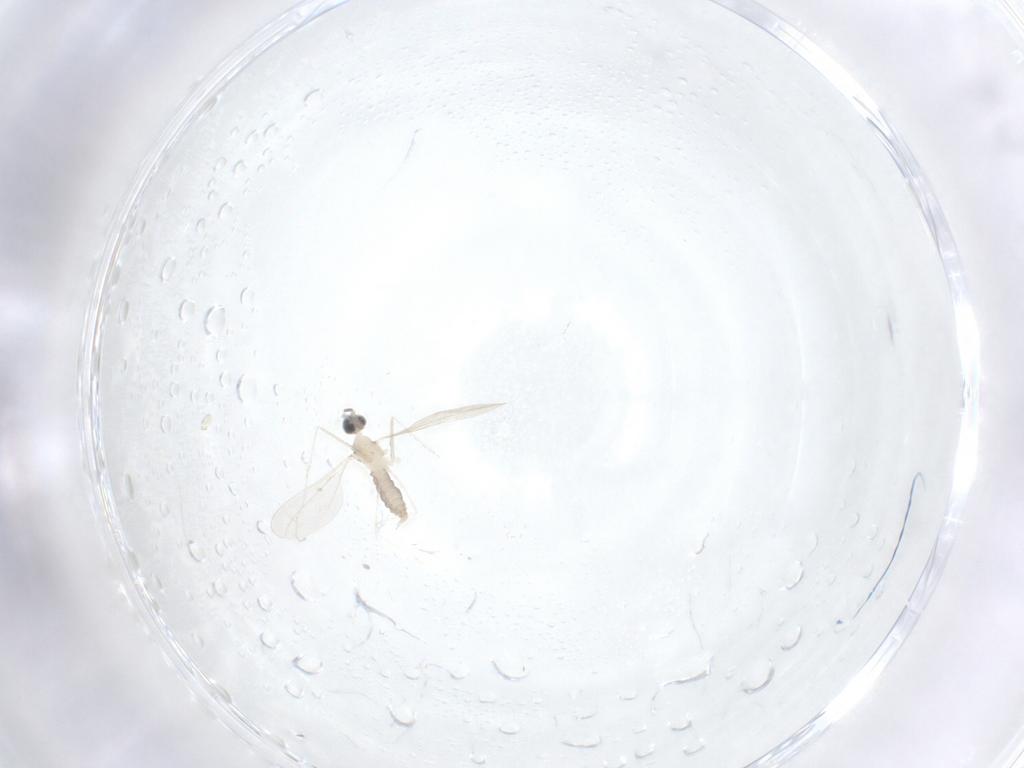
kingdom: Animalia
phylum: Arthropoda
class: Insecta
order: Diptera
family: Cecidomyiidae
